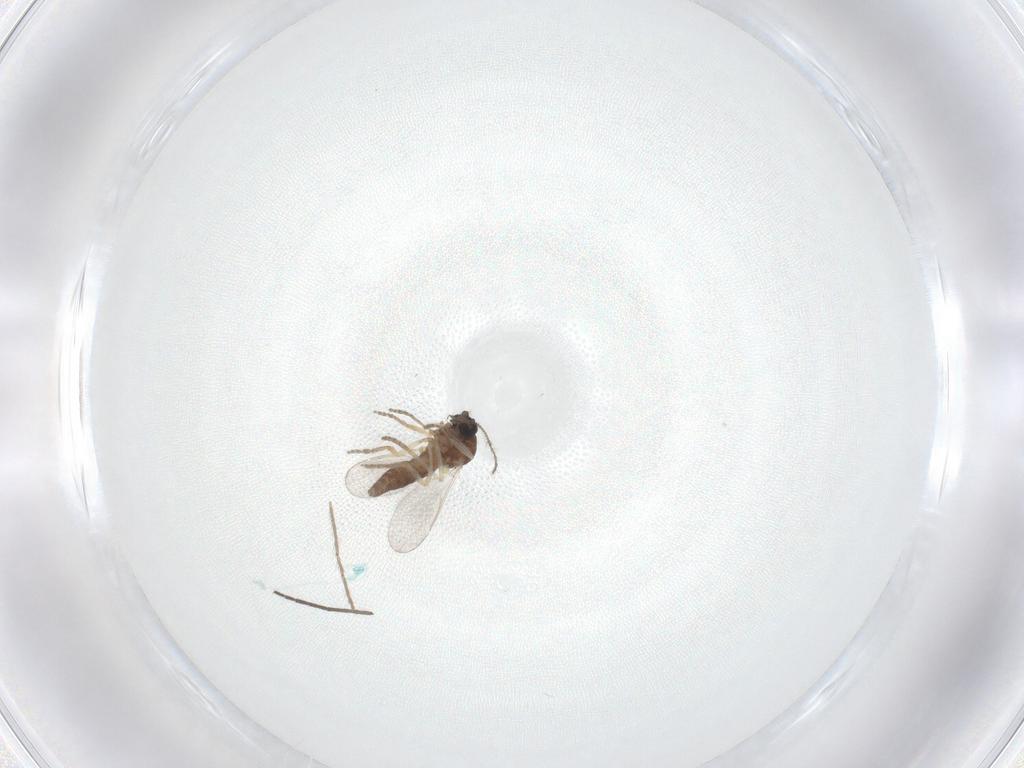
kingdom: Animalia
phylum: Arthropoda
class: Insecta
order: Diptera
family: Ceratopogonidae
